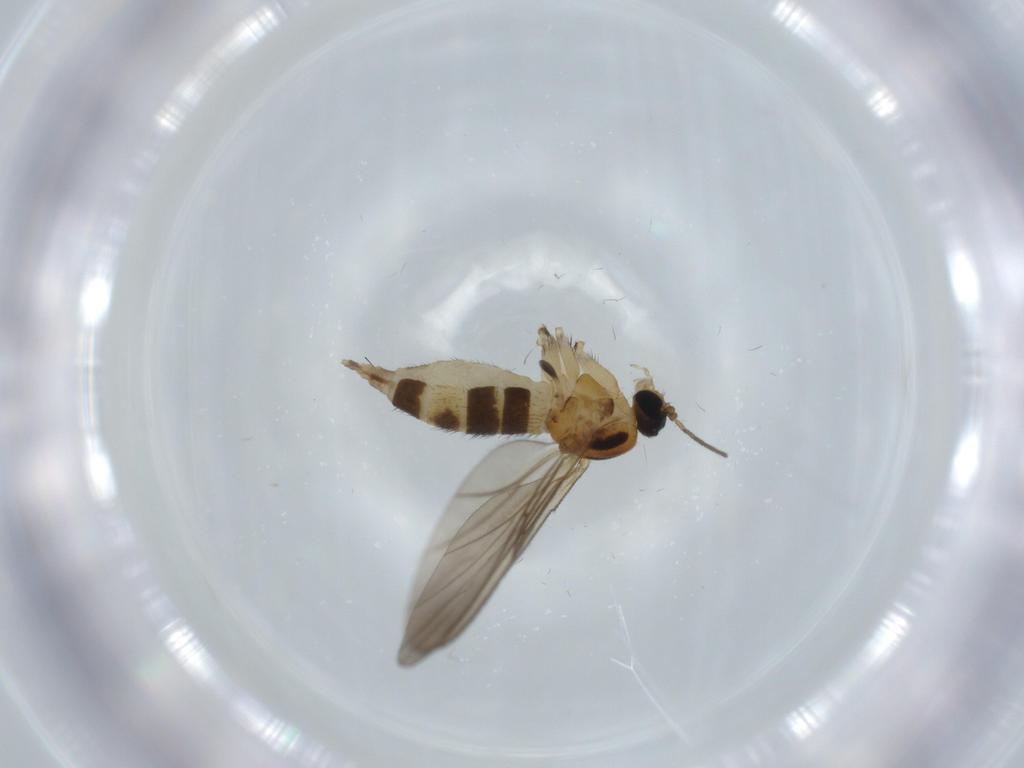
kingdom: Animalia
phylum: Arthropoda
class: Insecta
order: Diptera
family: Sciaridae
